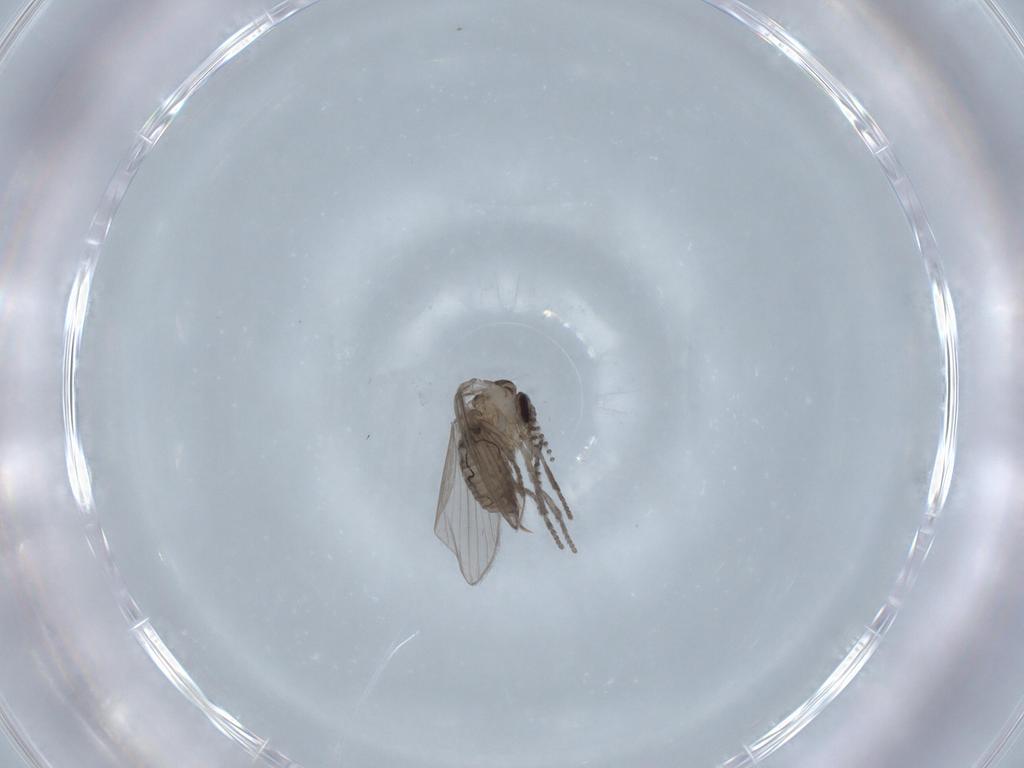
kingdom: Animalia
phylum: Arthropoda
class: Insecta
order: Diptera
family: Psychodidae
